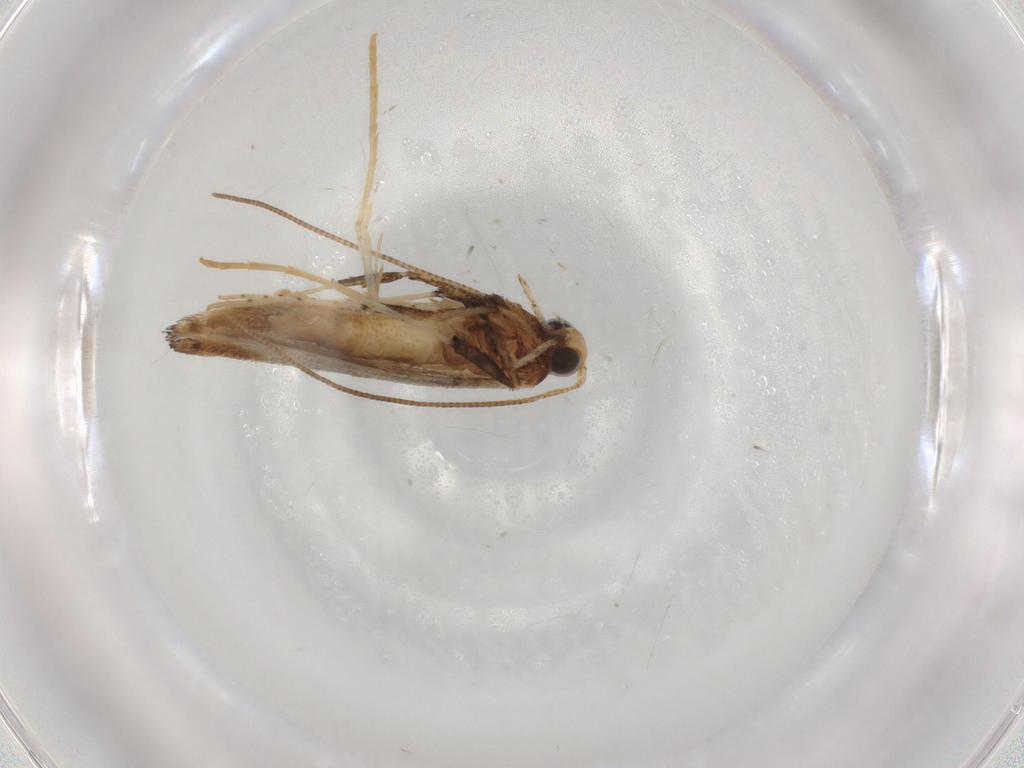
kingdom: Animalia
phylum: Arthropoda
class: Insecta
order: Lepidoptera
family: Gracillariidae
